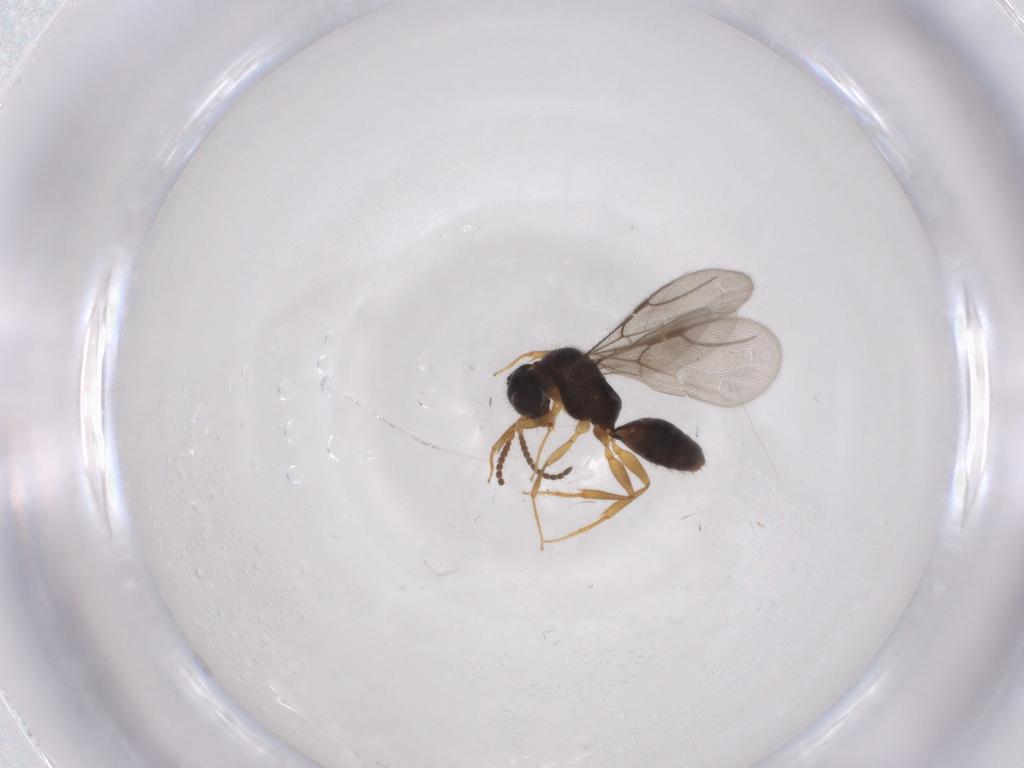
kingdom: Animalia
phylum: Arthropoda
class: Insecta
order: Hymenoptera
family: Bethylidae
